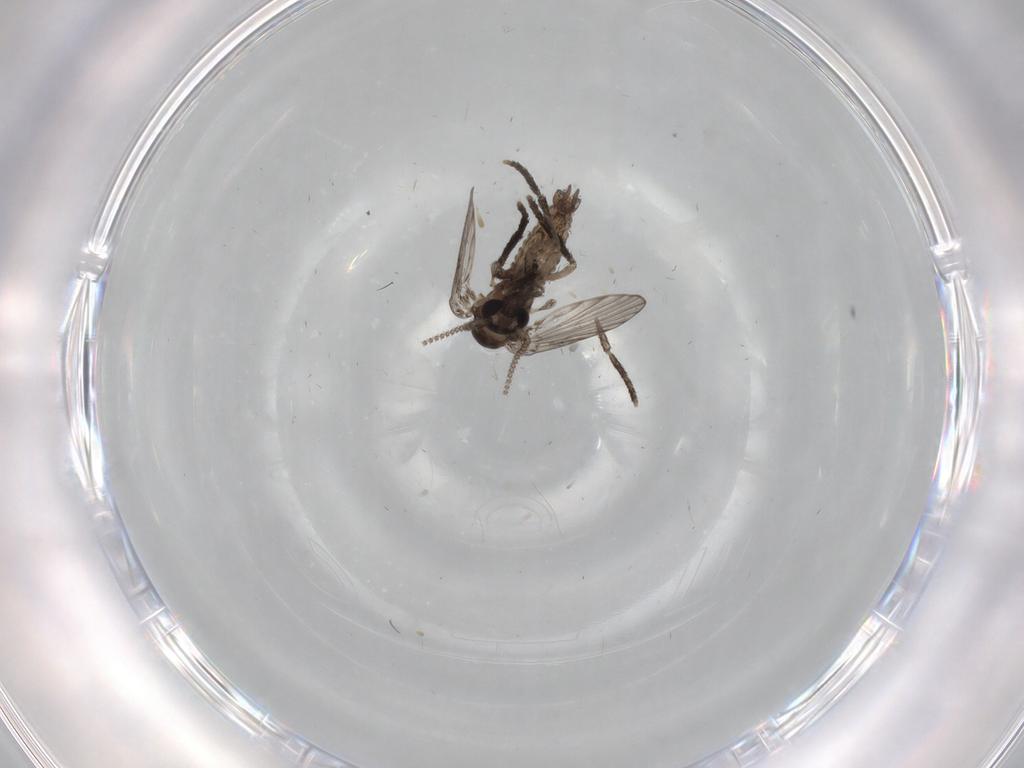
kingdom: Animalia
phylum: Arthropoda
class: Insecta
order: Diptera
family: Psychodidae
